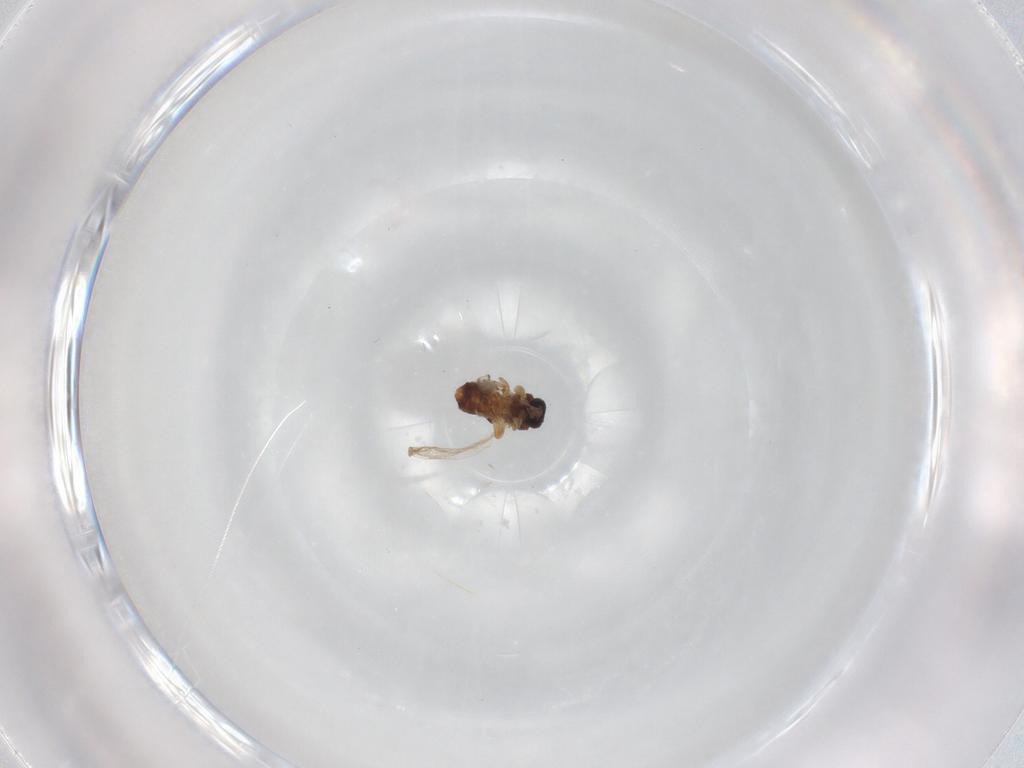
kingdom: Animalia
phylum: Arthropoda
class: Insecta
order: Diptera
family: Ceratopogonidae
